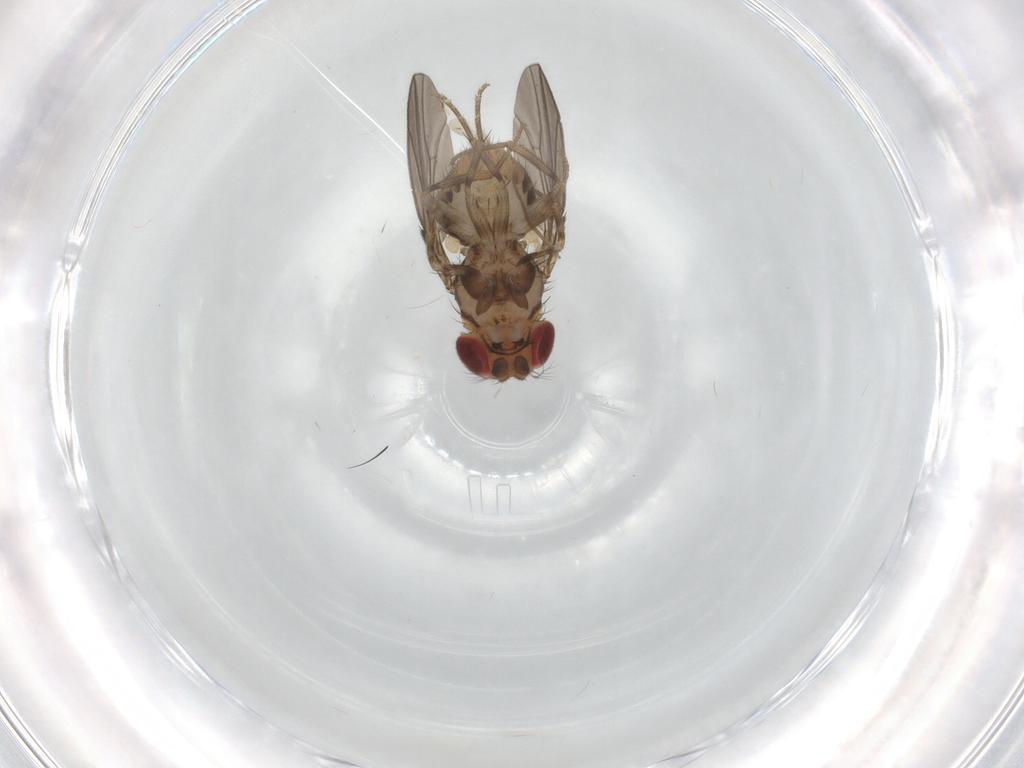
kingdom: Animalia
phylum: Arthropoda
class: Insecta
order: Diptera
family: Drosophilidae
